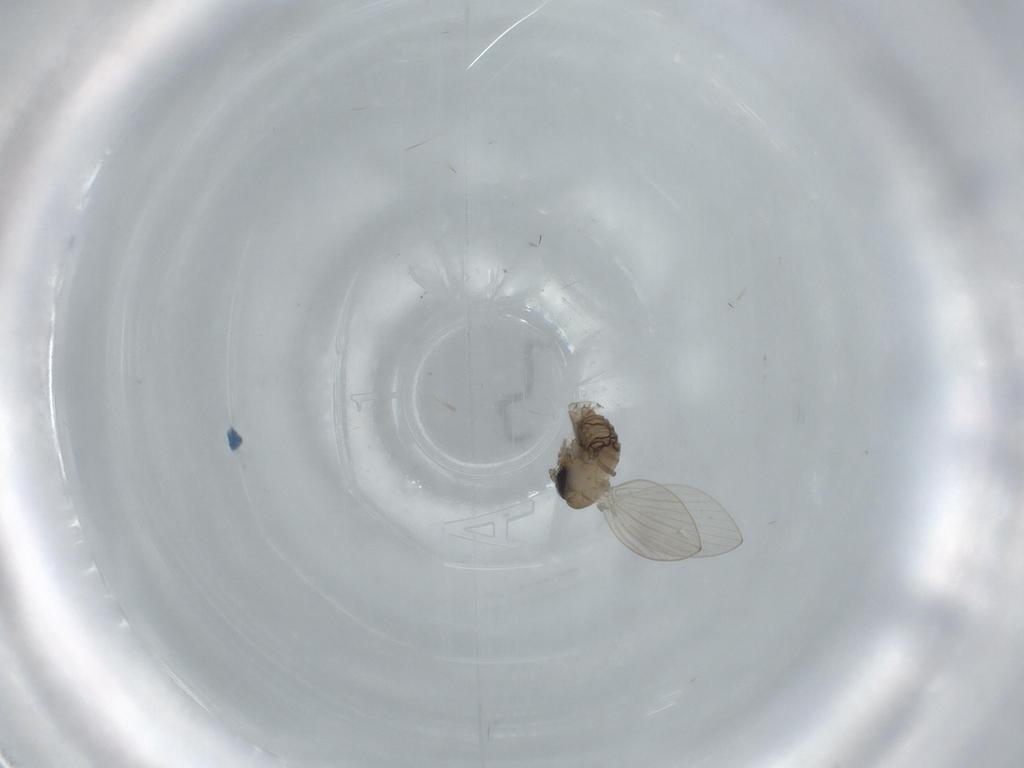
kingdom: Animalia
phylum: Arthropoda
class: Insecta
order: Diptera
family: Psychodidae
